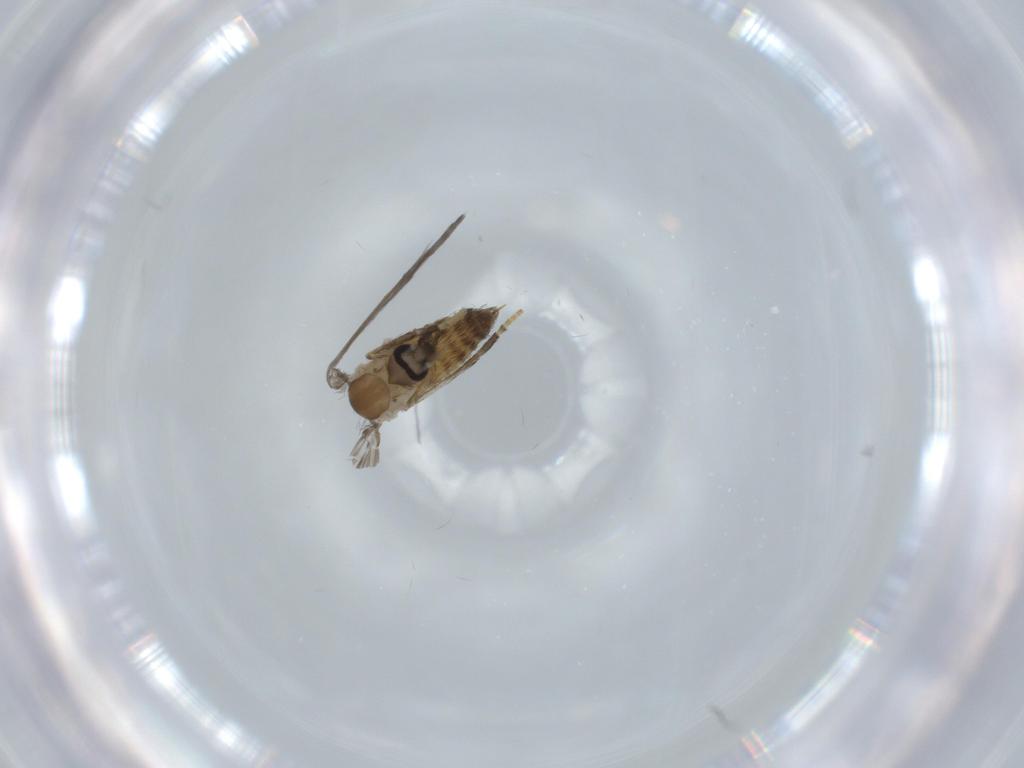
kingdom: Animalia
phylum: Arthropoda
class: Insecta
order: Diptera
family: Psychodidae
